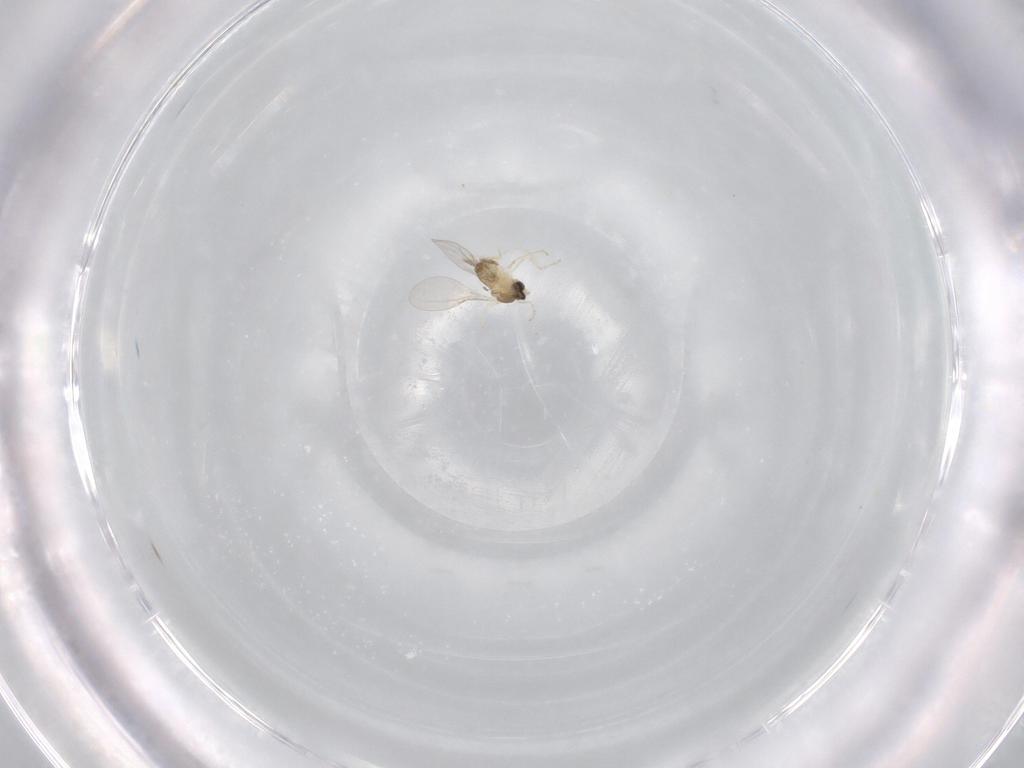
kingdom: Animalia
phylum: Arthropoda
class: Insecta
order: Diptera
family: Cecidomyiidae
